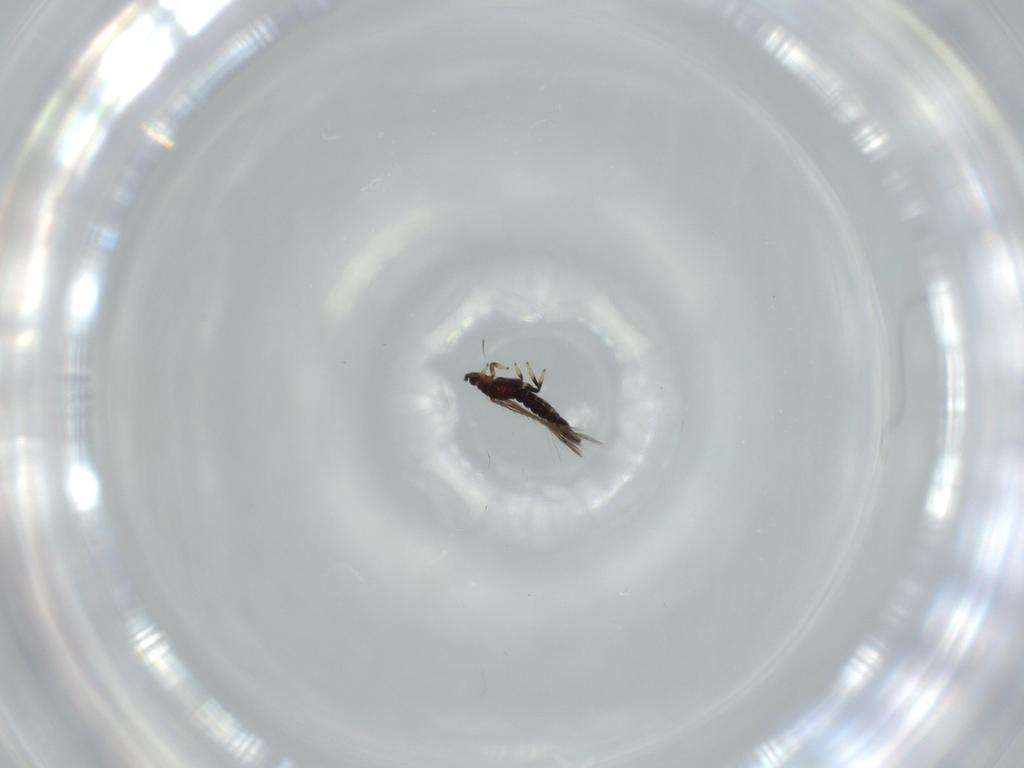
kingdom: Animalia
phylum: Arthropoda
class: Insecta
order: Thysanoptera
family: Thripidae
